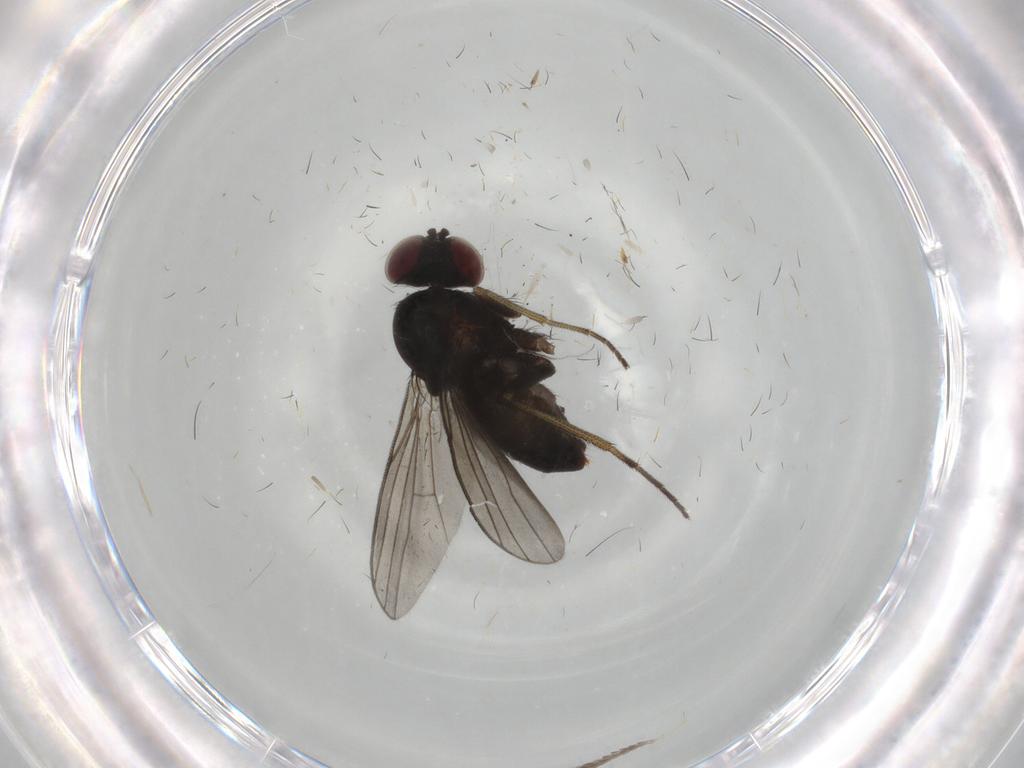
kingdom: Animalia
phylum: Arthropoda
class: Insecta
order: Diptera
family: Dolichopodidae
